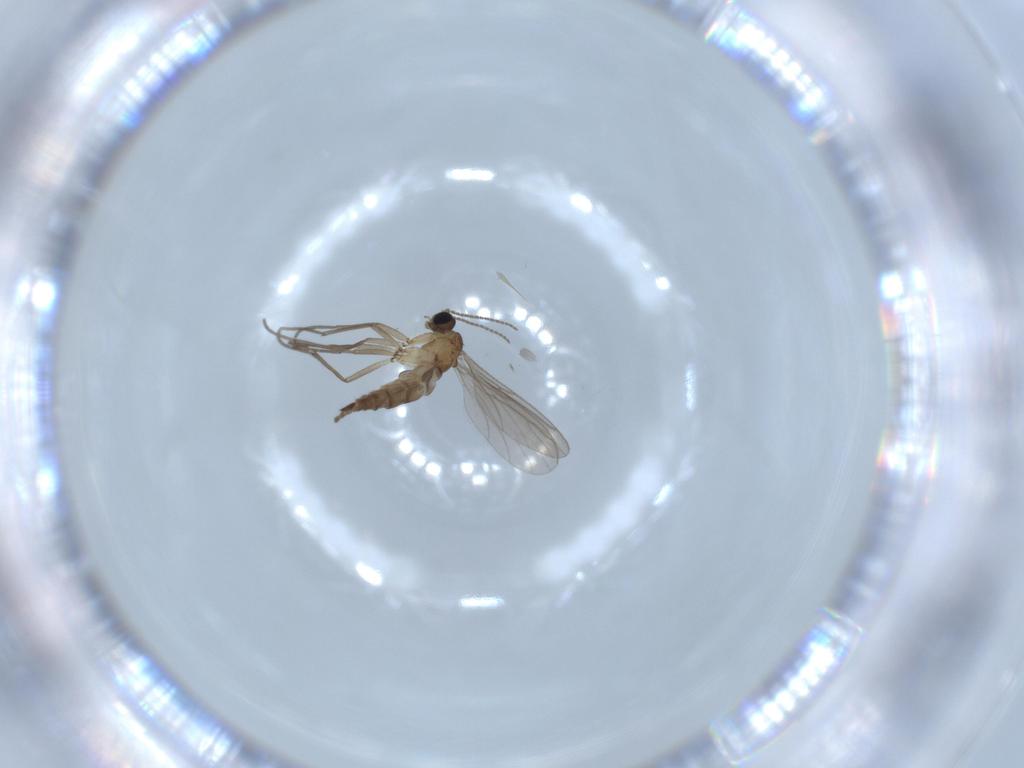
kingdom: Animalia
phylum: Arthropoda
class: Insecta
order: Diptera
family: Sciaridae
